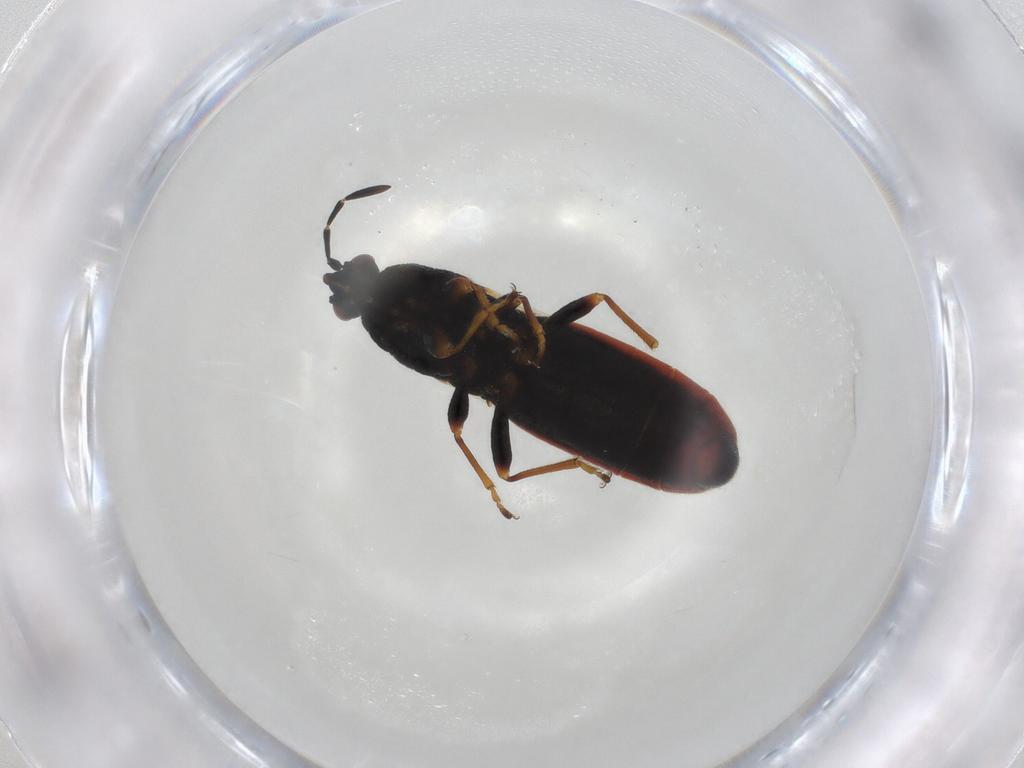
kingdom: Animalia
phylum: Arthropoda
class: Insecta
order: Hemiptera
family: Blissidae
